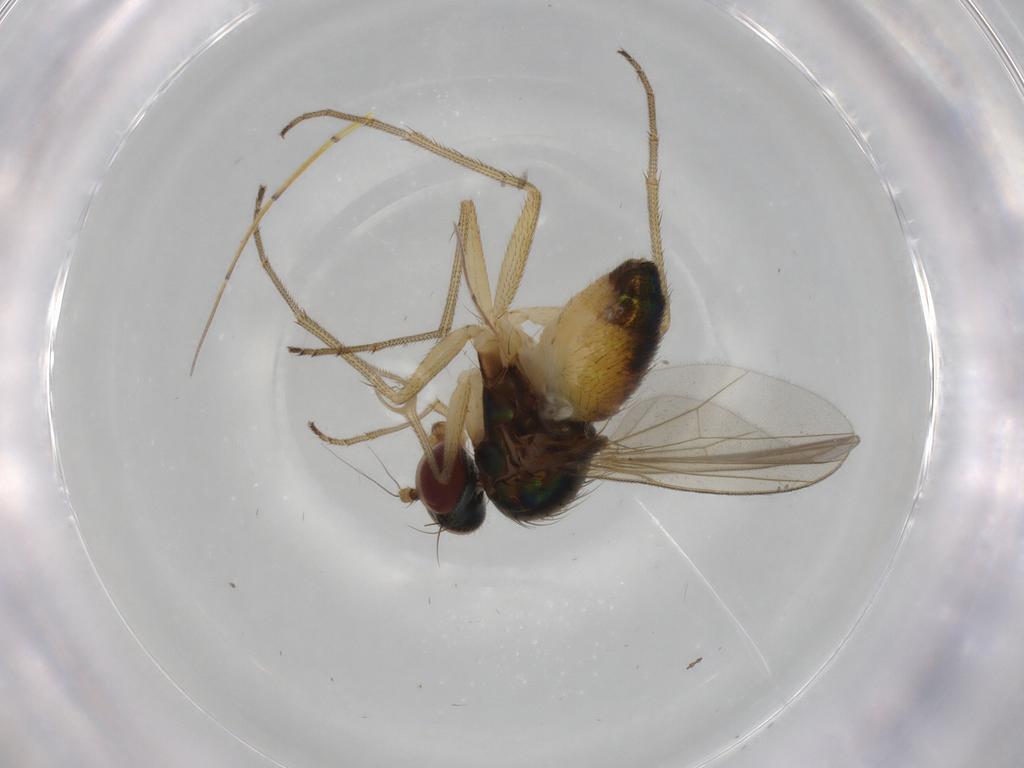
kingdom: Animalia
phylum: Arthropoda
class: Insecta
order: Diptera
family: Dolichopodidae
